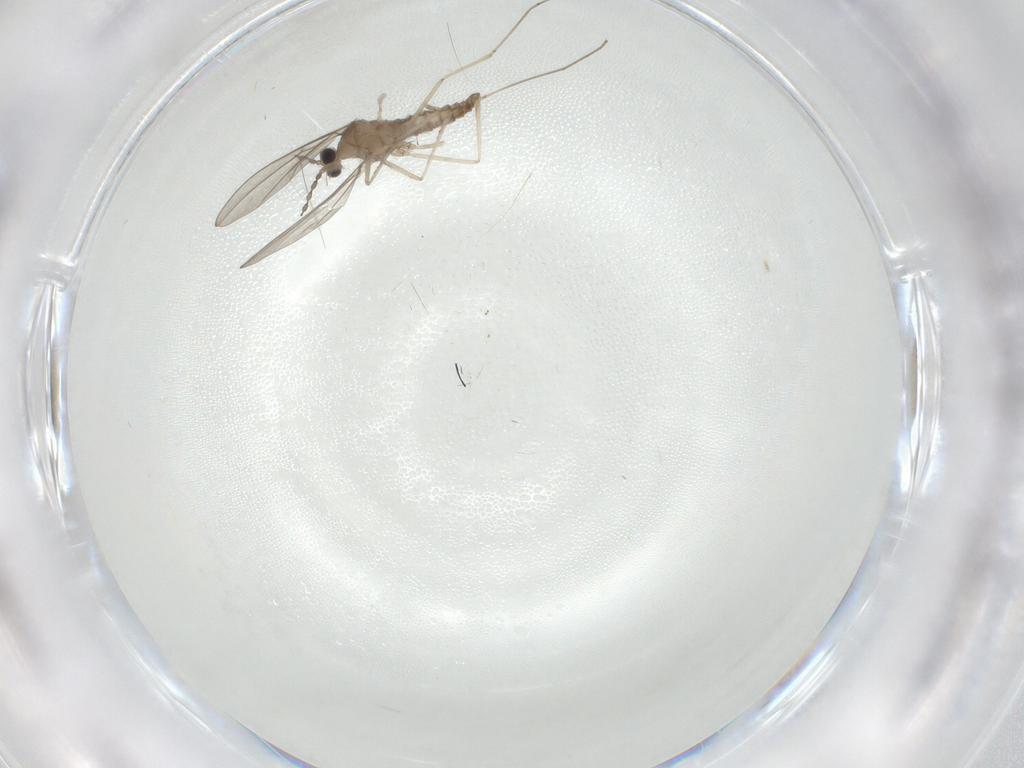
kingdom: Animalia
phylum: Arthropoda
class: Insecta
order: Diptera
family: Cecidomyiidae
